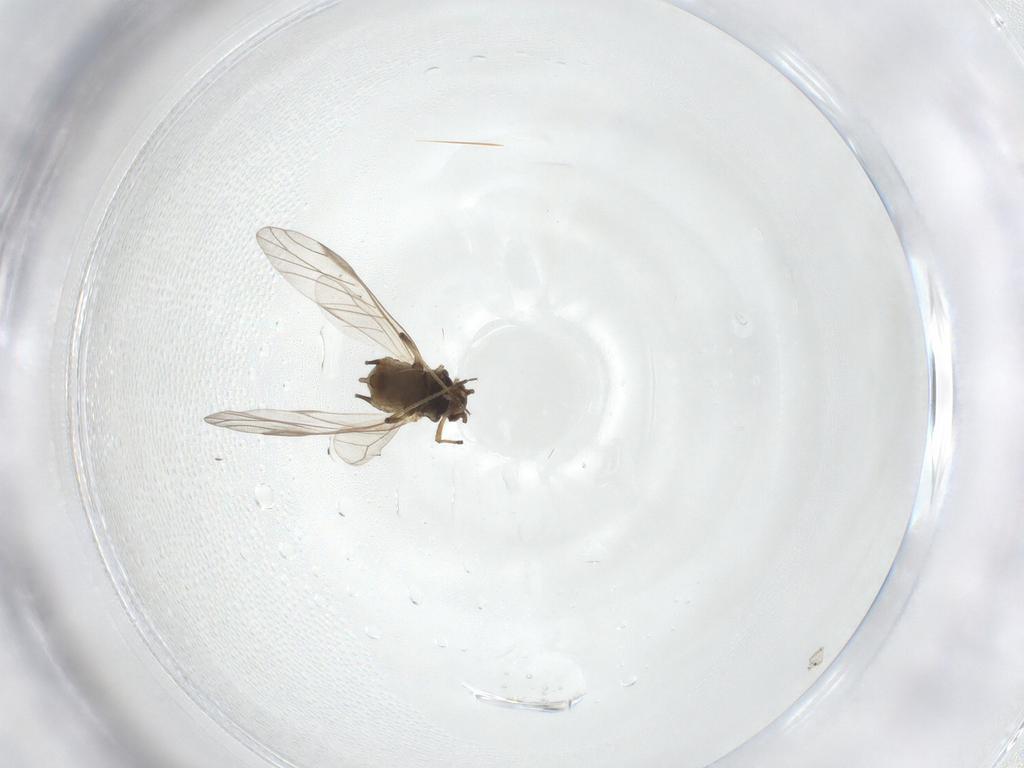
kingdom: Animalia
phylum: Arthropoda
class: Insecta
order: Hemiptera
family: Aphididae
